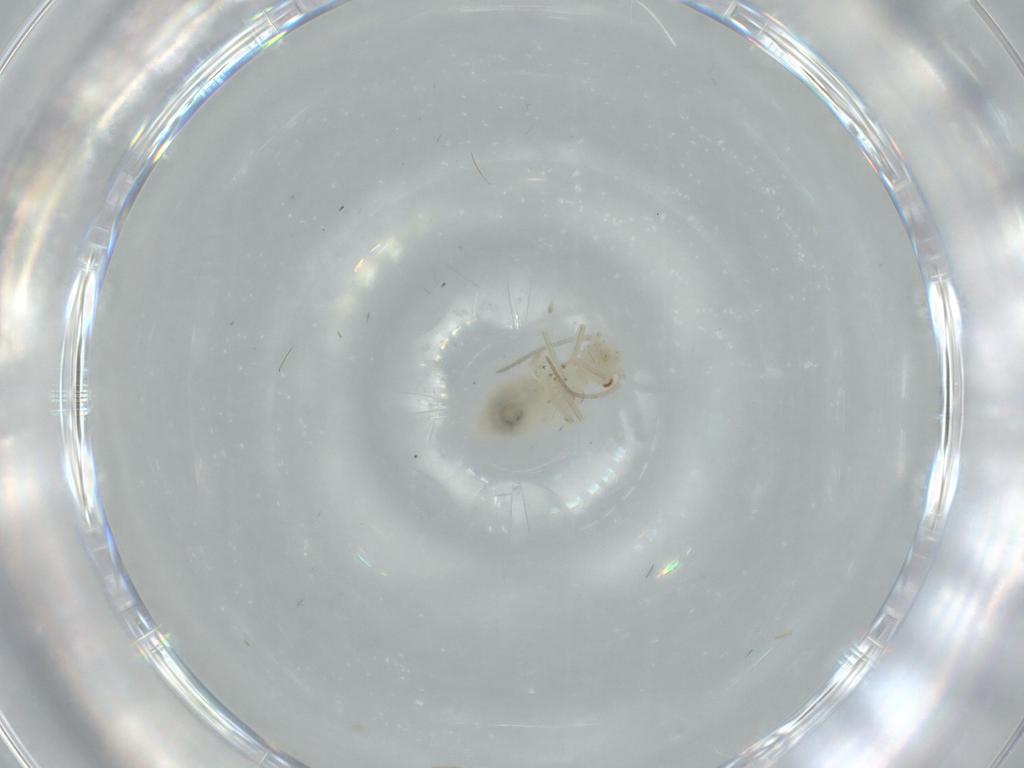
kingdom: Animalia
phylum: Arthropoda
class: Insecta
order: Psocodea
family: Caeciliusidae
